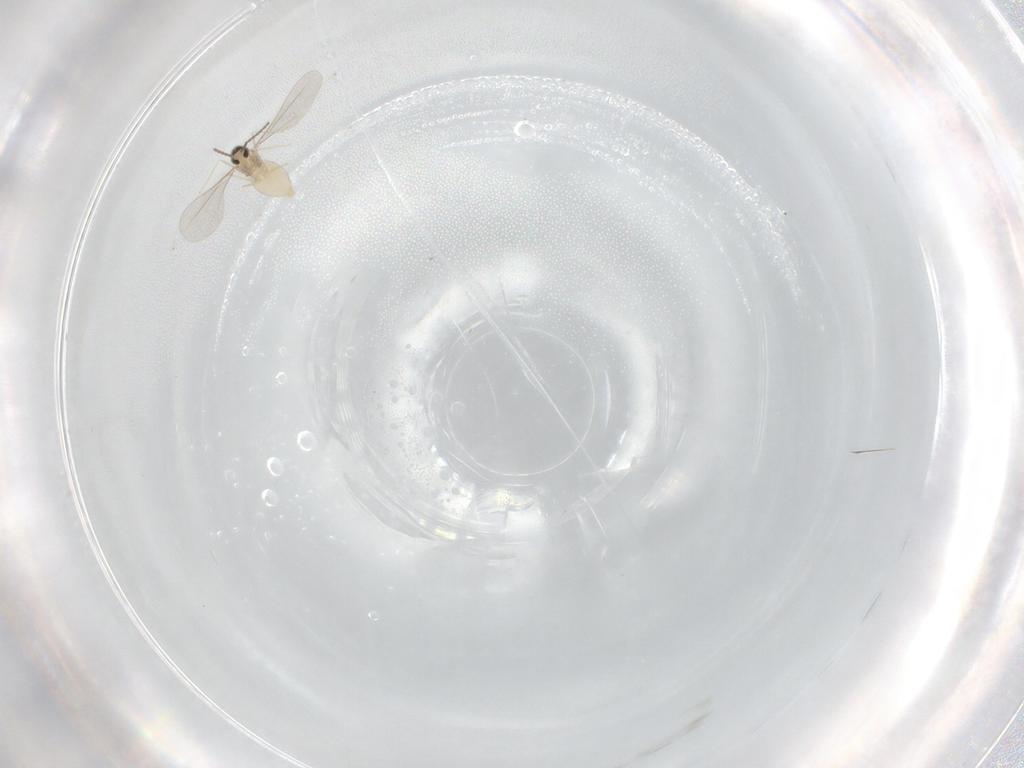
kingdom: Animalia
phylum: Arthropoda
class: Insecta
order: Diptera
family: Cecidomyiidae
